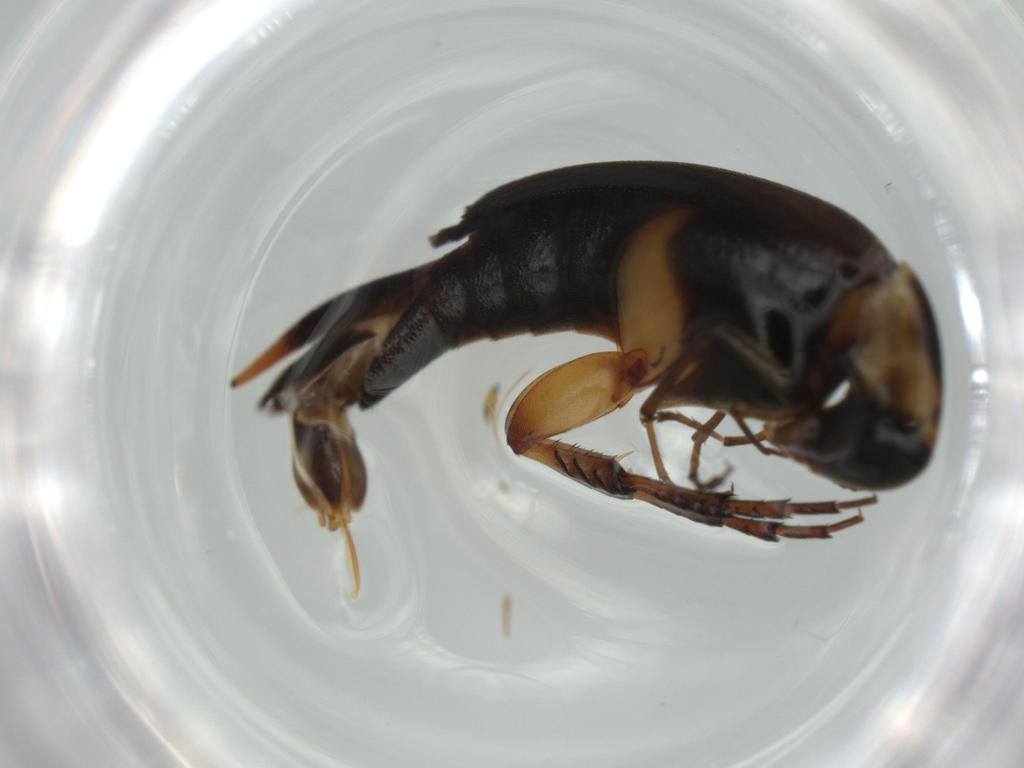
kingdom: Animalia
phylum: Arthropoda
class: Insecta
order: Coleoptera
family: Mordellidae
